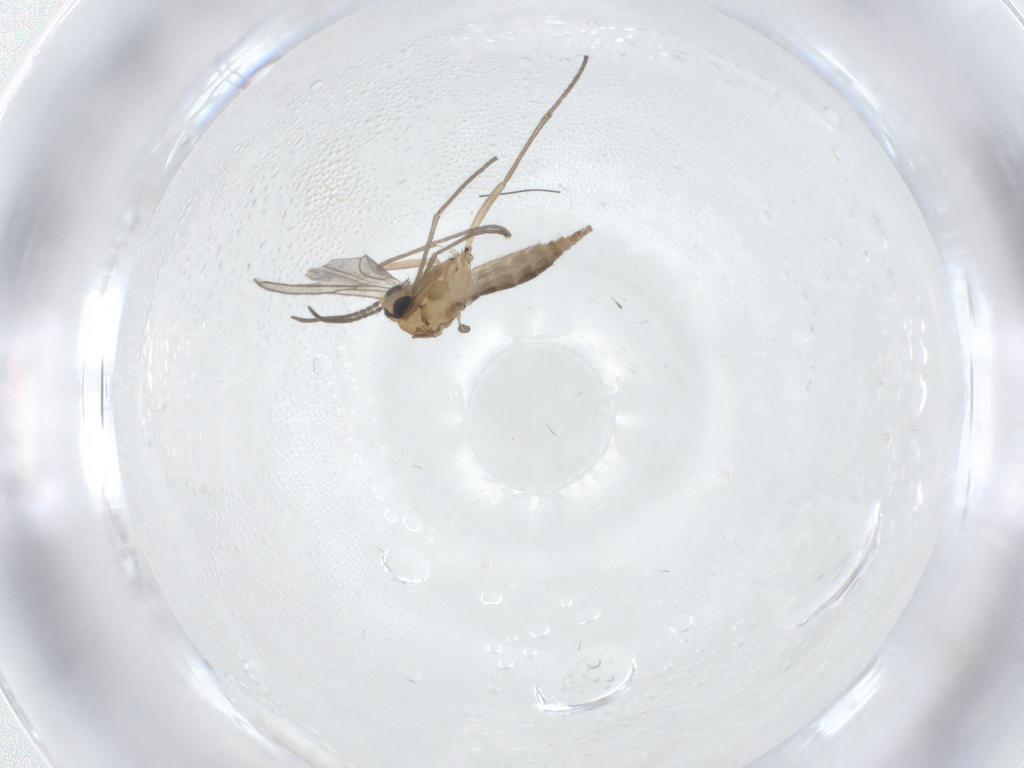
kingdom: Animalia
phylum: Arthropoda
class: Insecta
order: Diptera
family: Sciaridae
